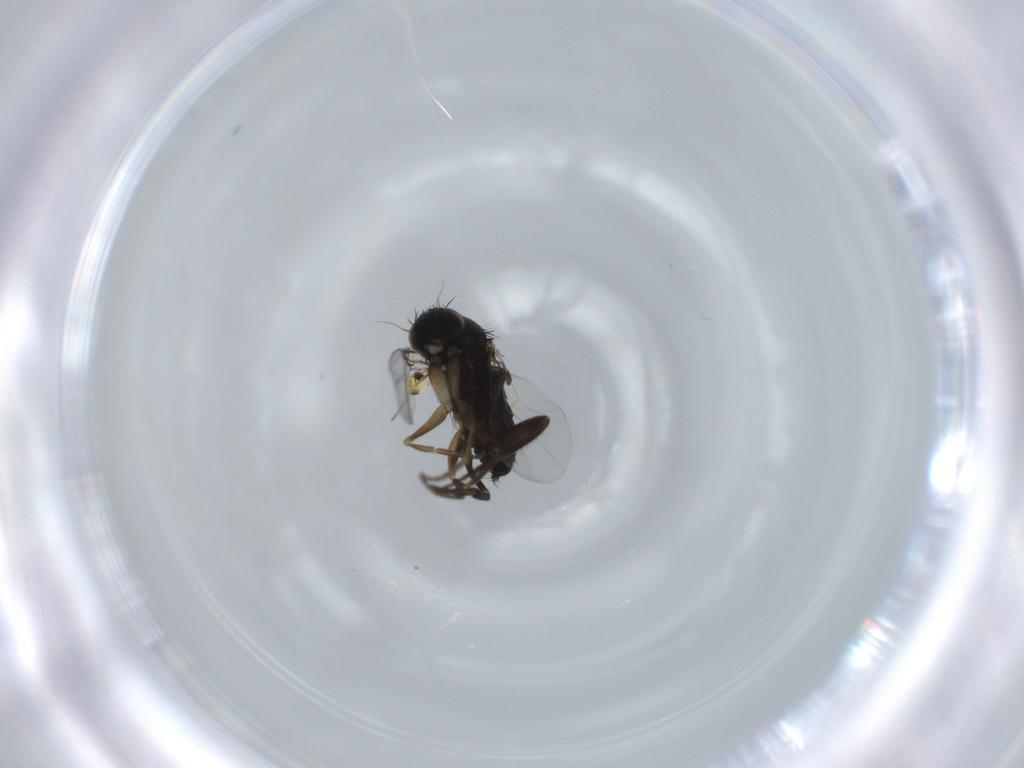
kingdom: Animalia
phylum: Arthropoda
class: Insecta
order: Diptera
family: Phoridae
